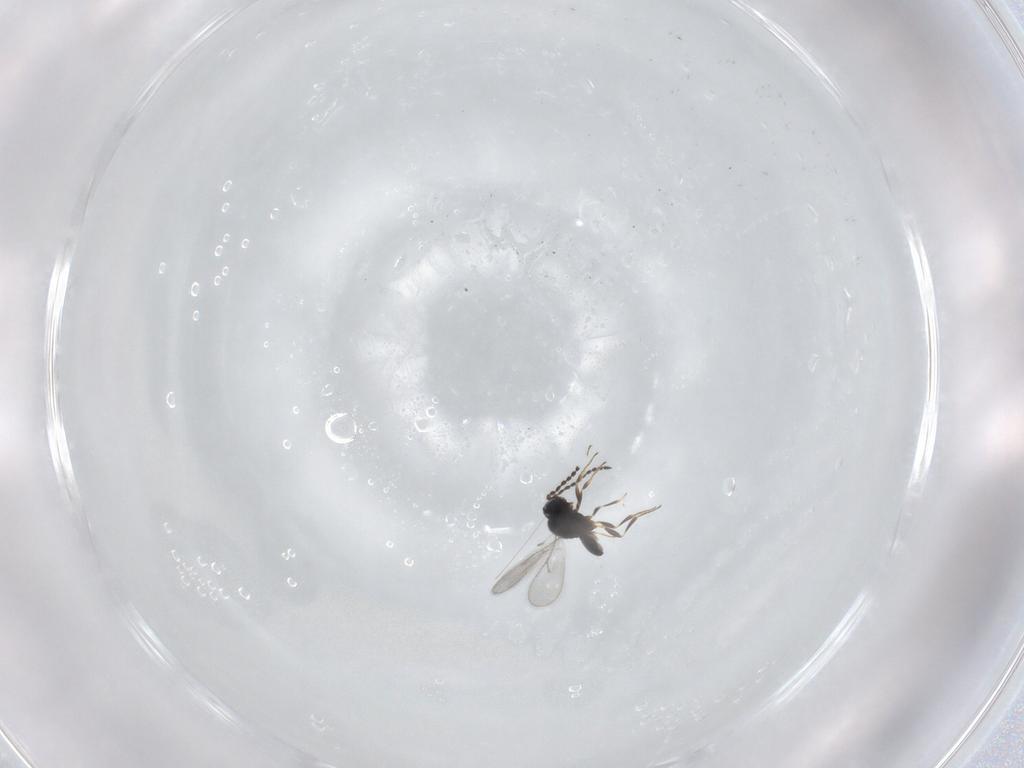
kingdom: Animalia
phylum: Arthropoda
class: Insecta
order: Hymenoptera
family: Scelionidae
